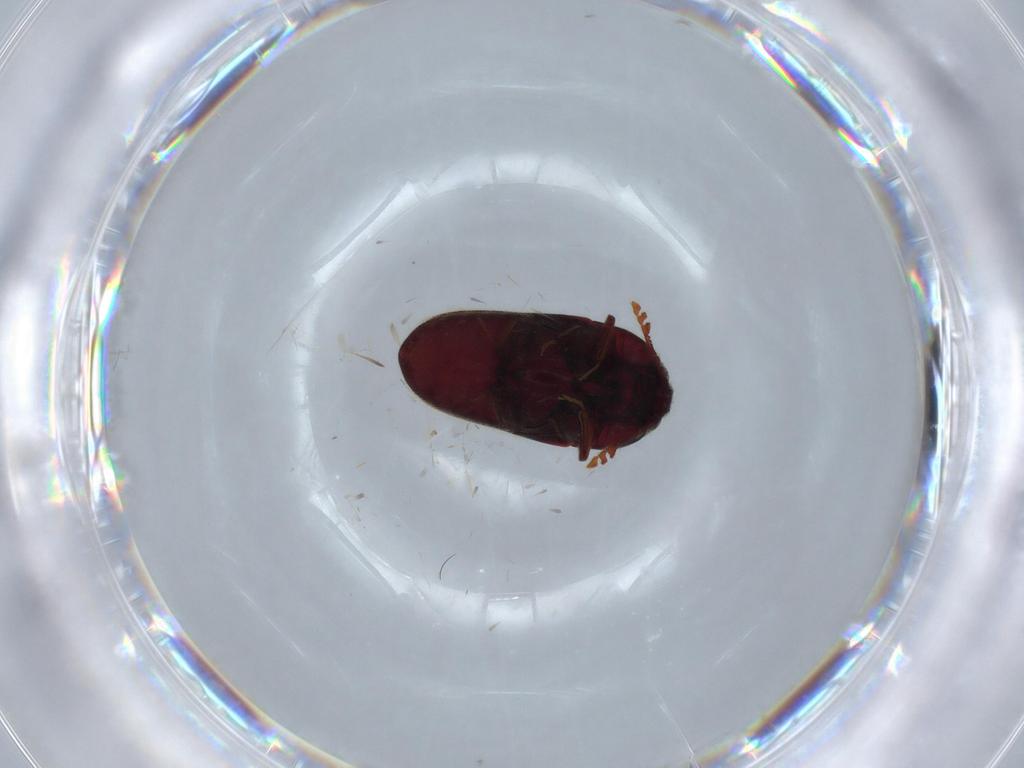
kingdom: Animalia
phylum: Arthropoda
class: Insecta
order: Coleoptera
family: Throscidae
